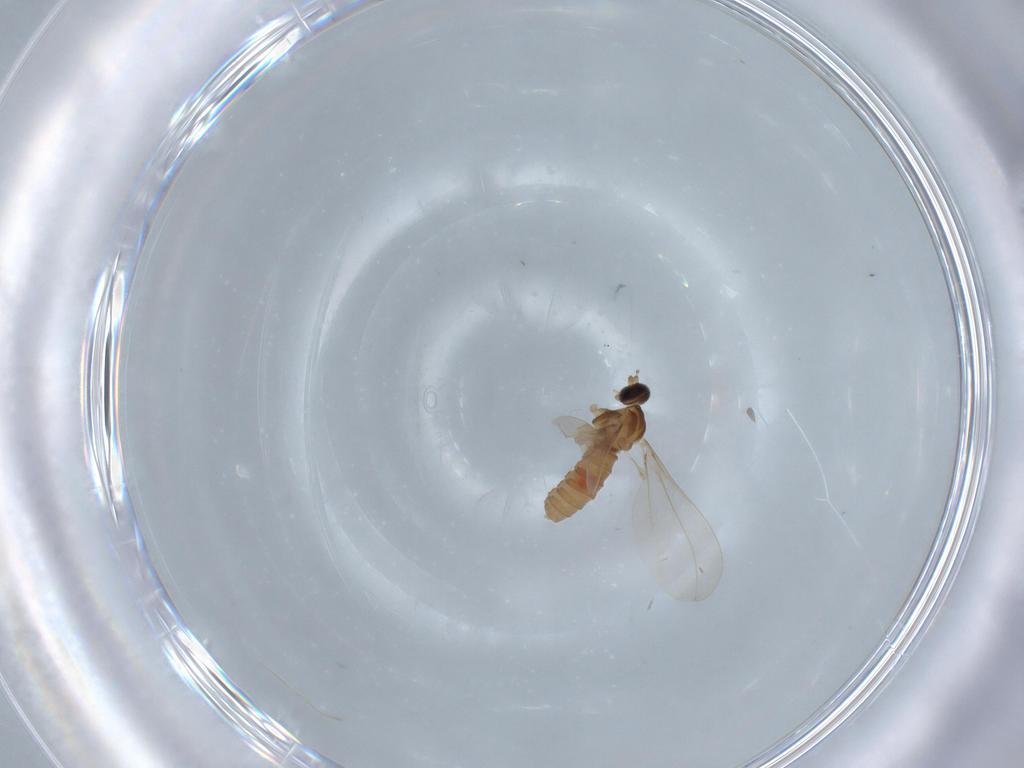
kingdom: Animalia
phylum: Arthropoda
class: Insecta
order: Diptera
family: Cecidomyiidae
